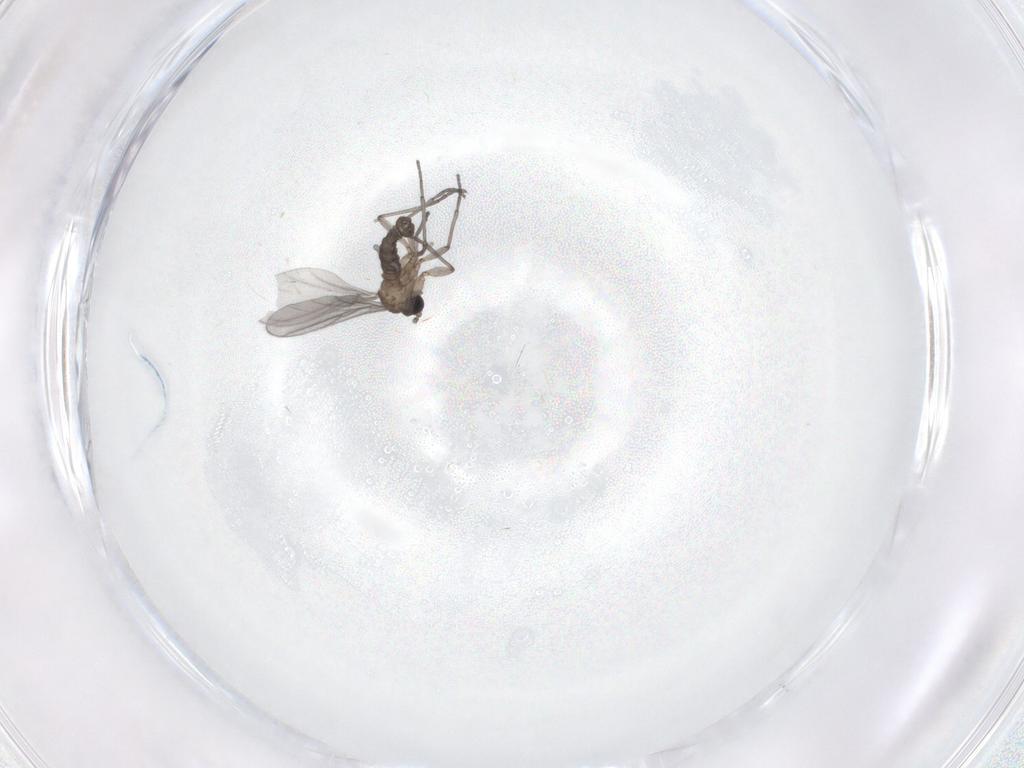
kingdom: Animalia
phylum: Arthropoda
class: Insecta
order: Diptera
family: Sciaridae
